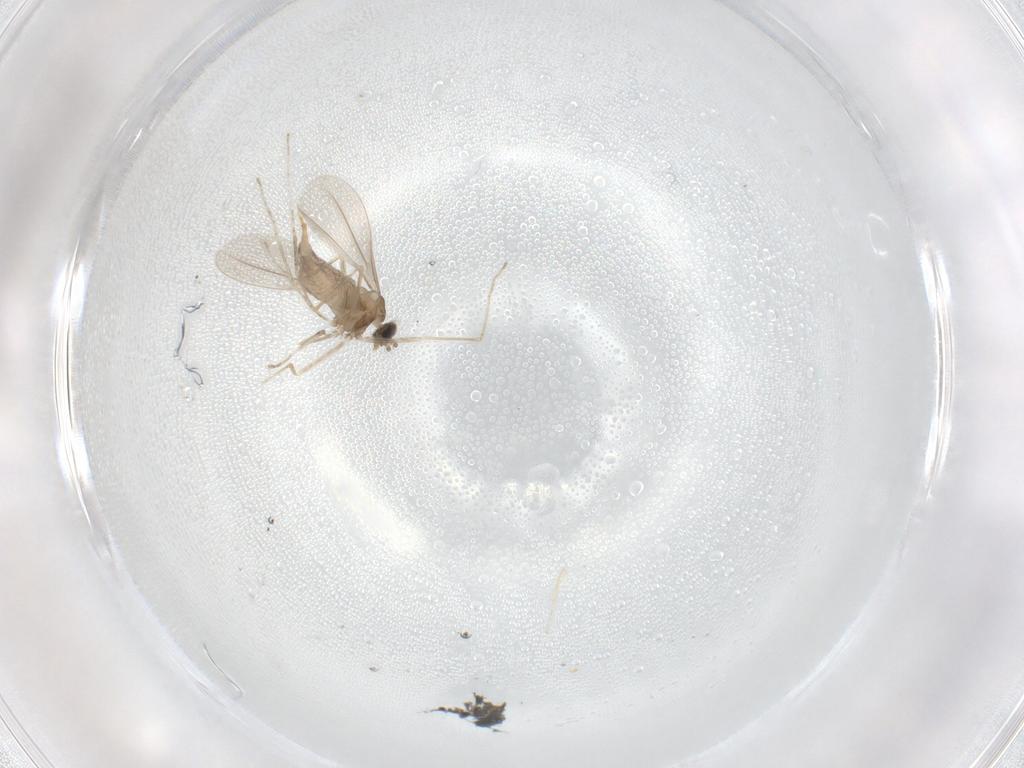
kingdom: Animalia
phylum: Arthropoda
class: Insecta
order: Diptera
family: Cecidomyiidae
